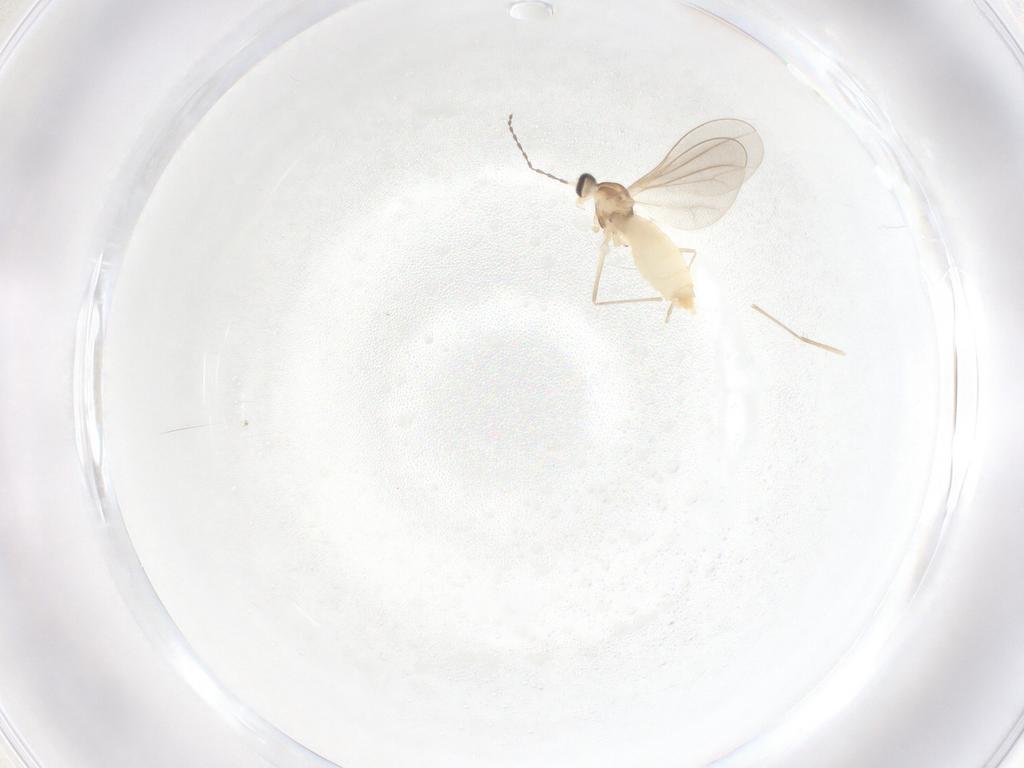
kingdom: Animalia
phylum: Arthropoda
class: Insecta
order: Diptera
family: Cecidomyiidae
